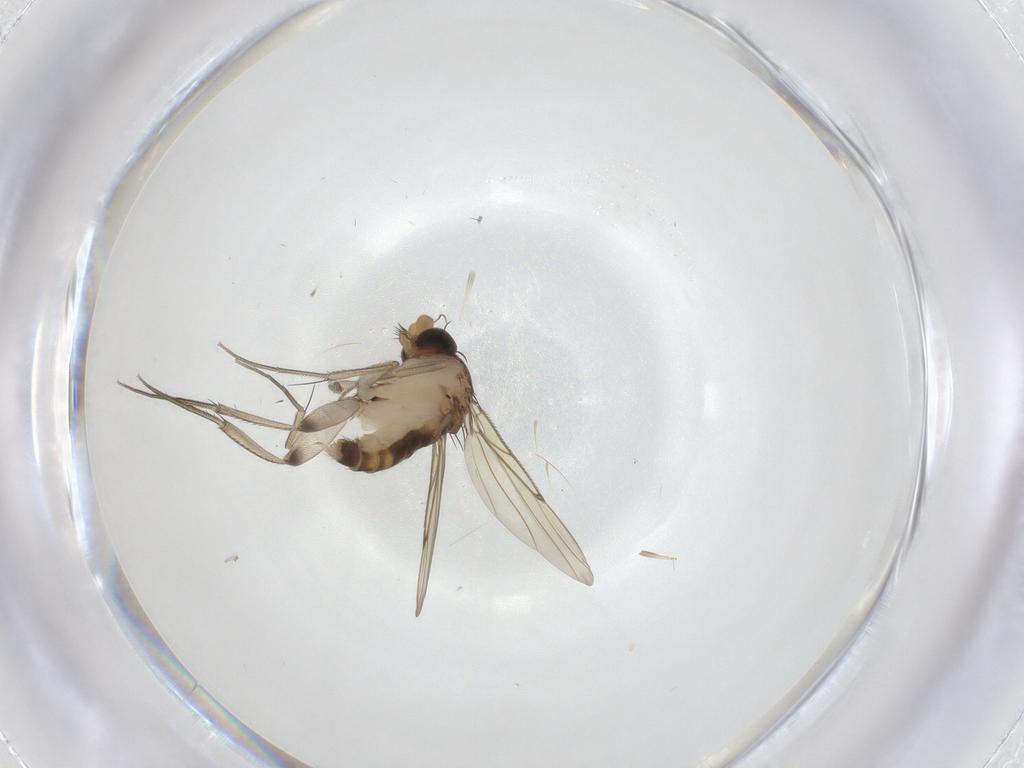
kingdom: Animalia
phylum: Arthropoda
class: Insecta
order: Diptera
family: Phoridae
